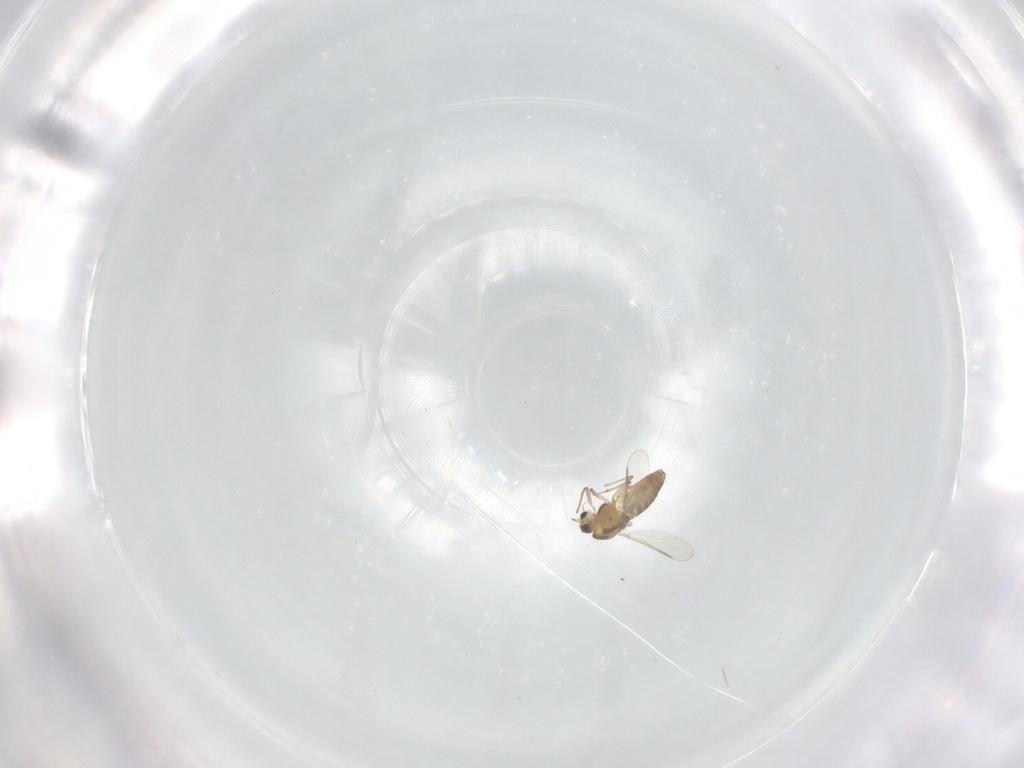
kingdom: Animalia
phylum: Arthropoda
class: Insecta
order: Diptera
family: Chironomidae
